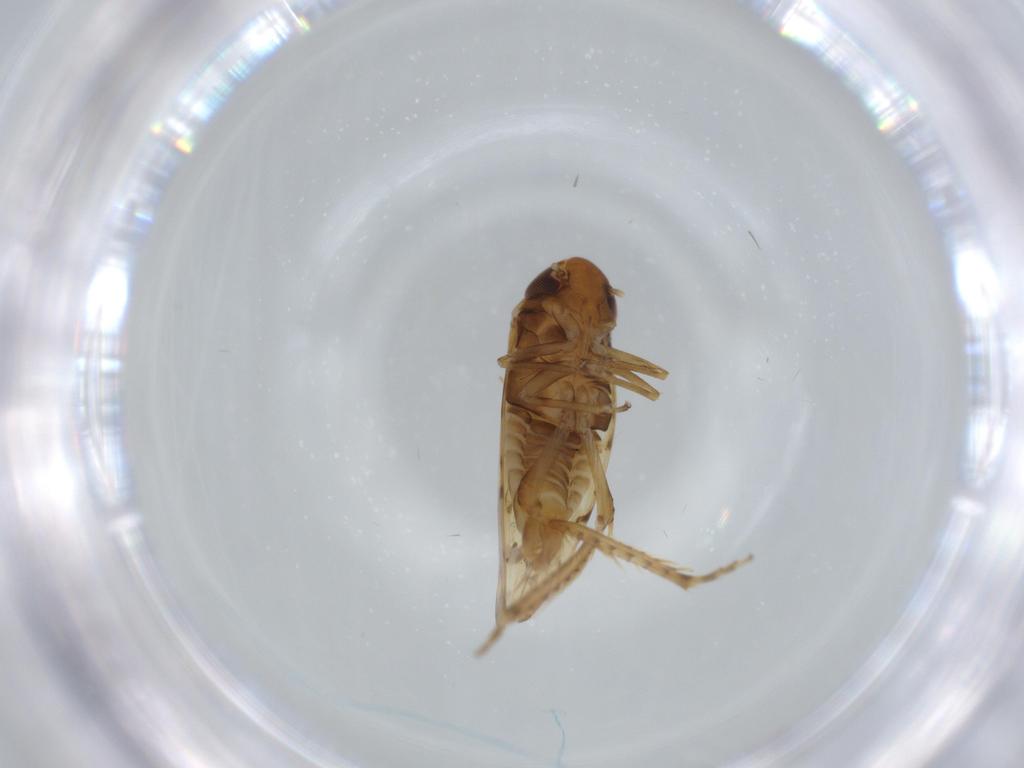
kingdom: Animalia
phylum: Arthropoda
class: Insecta
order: Hemiptera
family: Cicadellidae
